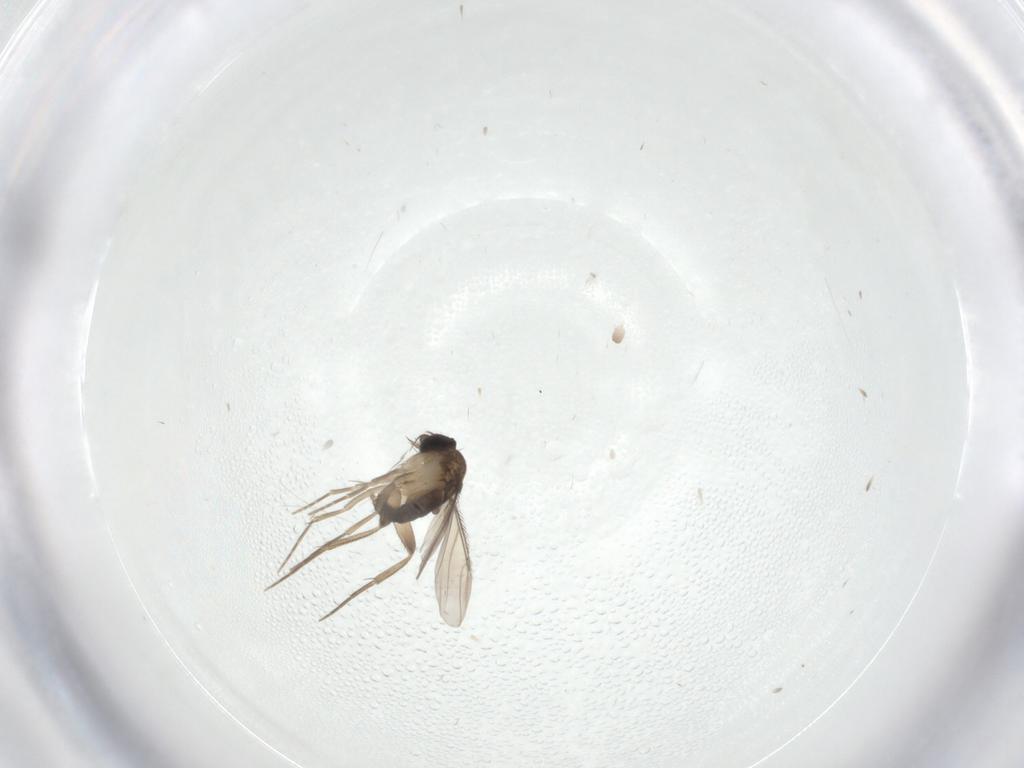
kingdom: Animalia
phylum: Arthropoda
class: Insecta
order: Diptera
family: Phoridae
